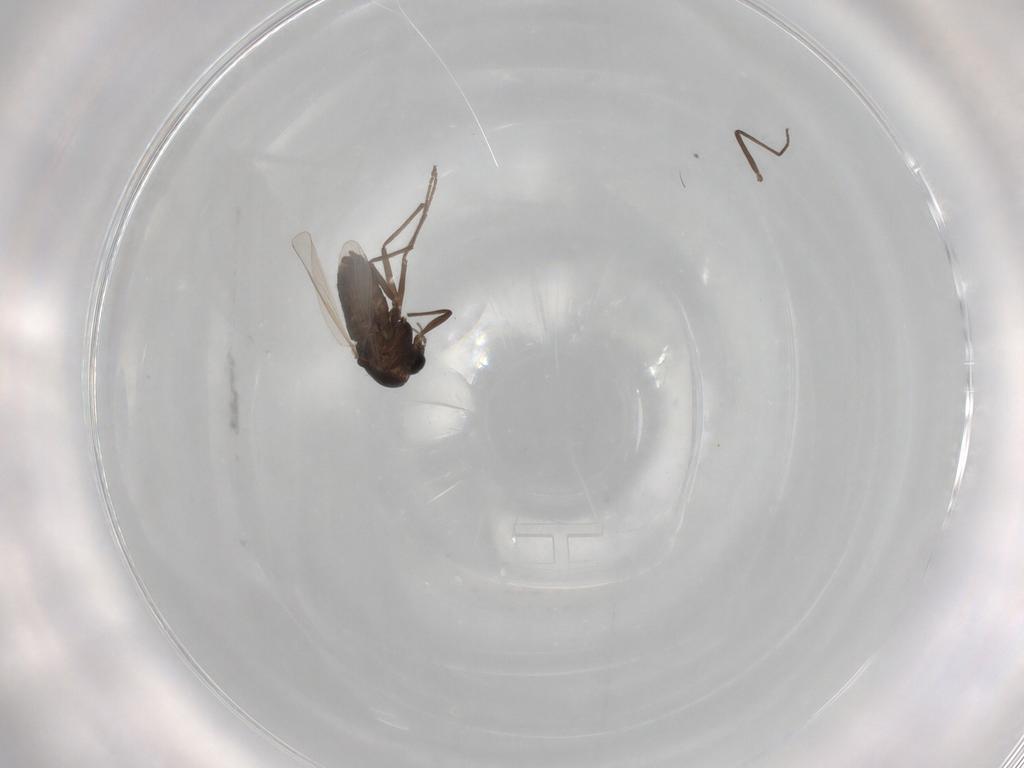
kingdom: Animalia
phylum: Arthropoda
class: Insecta
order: Diptera
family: Chironomidae
